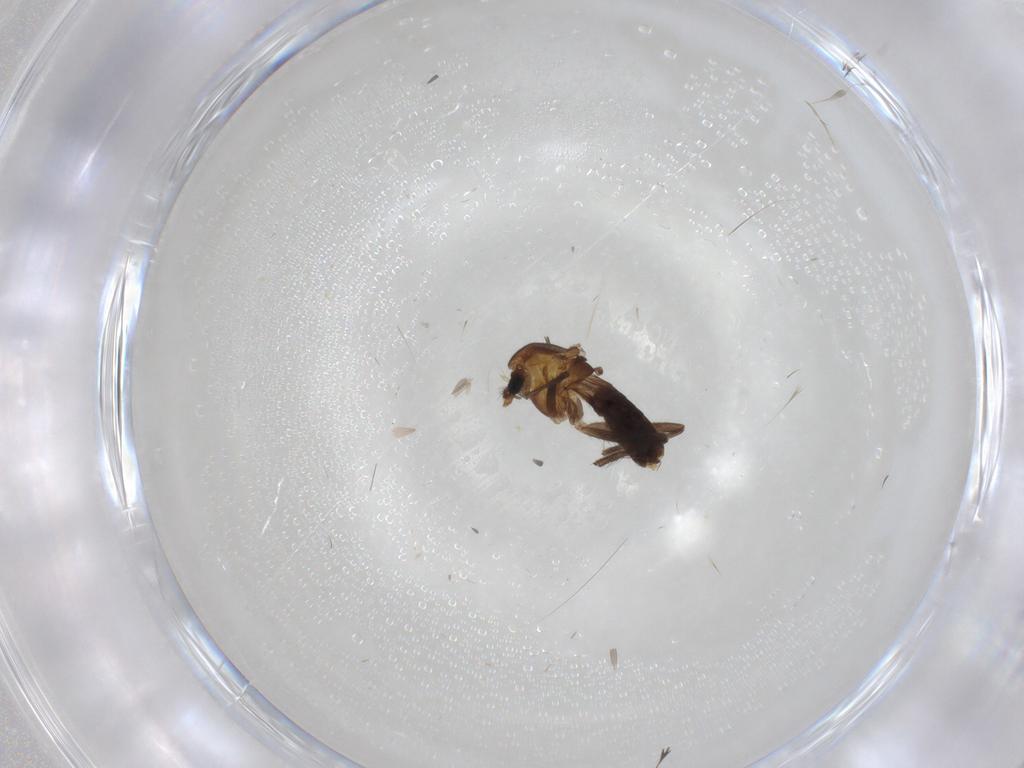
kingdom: Animalia
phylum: Arthropoda
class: Insecta
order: Diptera
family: Chironomidae
